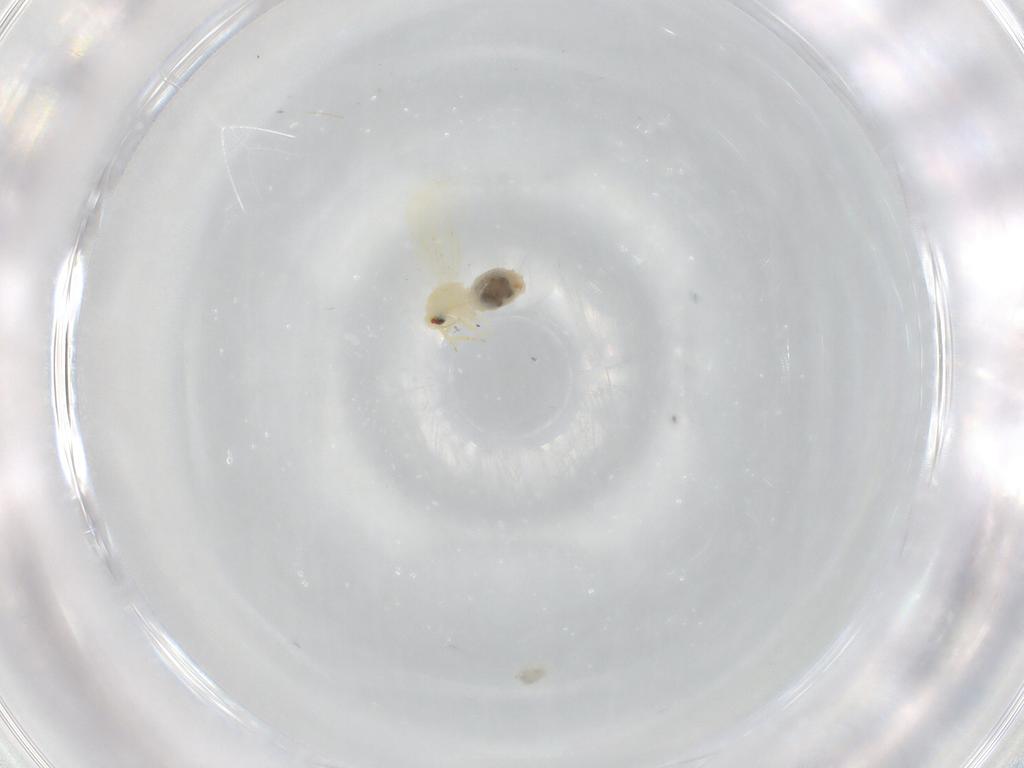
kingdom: Animalia
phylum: Arthropoda
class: Insecta
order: Hemiptera
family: Aleyrodidae
